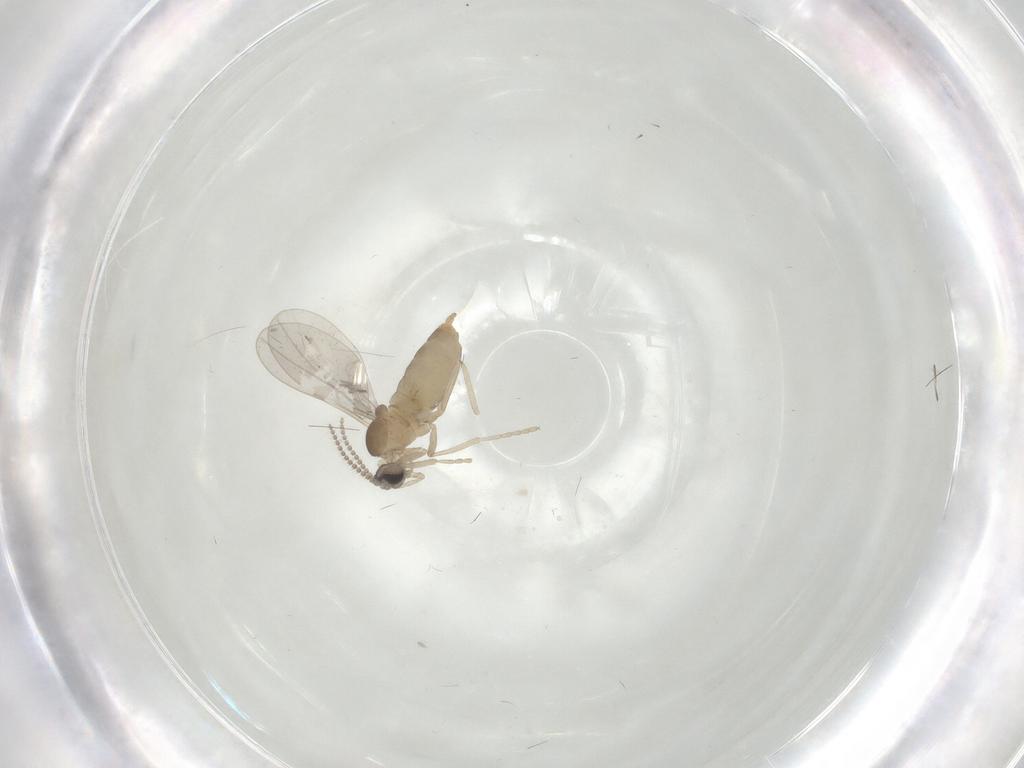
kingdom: Animalia
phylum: Arthropoda
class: Insecta
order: Diptera
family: Cecidomyiidae
